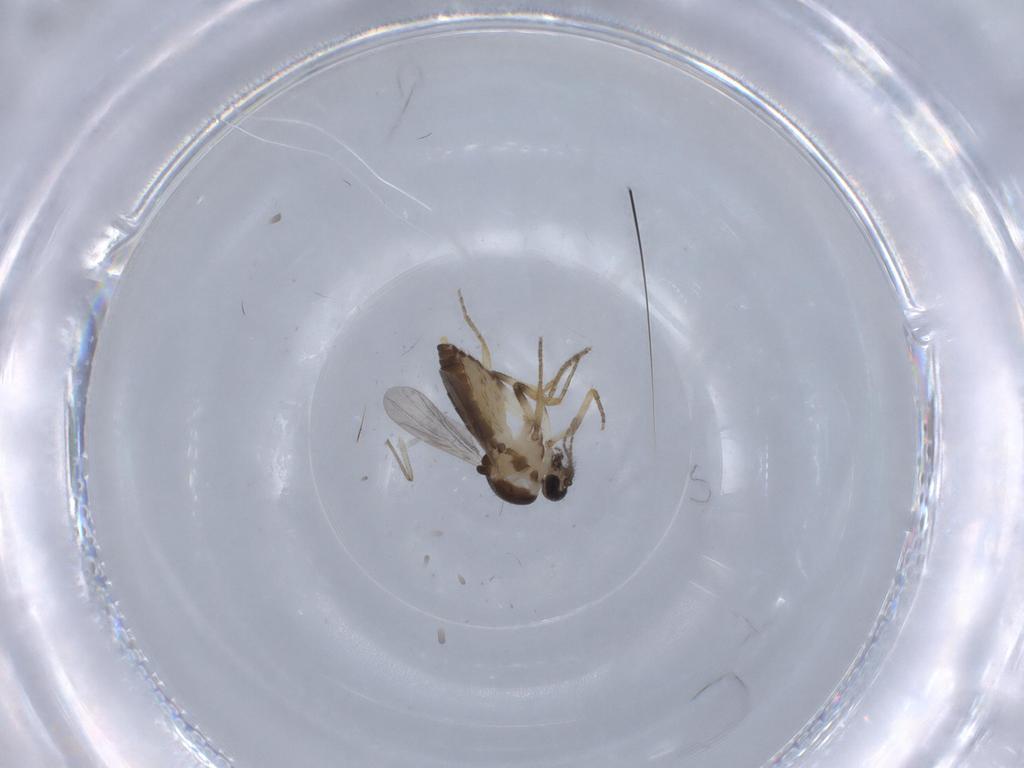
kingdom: Animalia
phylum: Arthropoda
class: Insecta
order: Diptera
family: Ceratopogonidae
